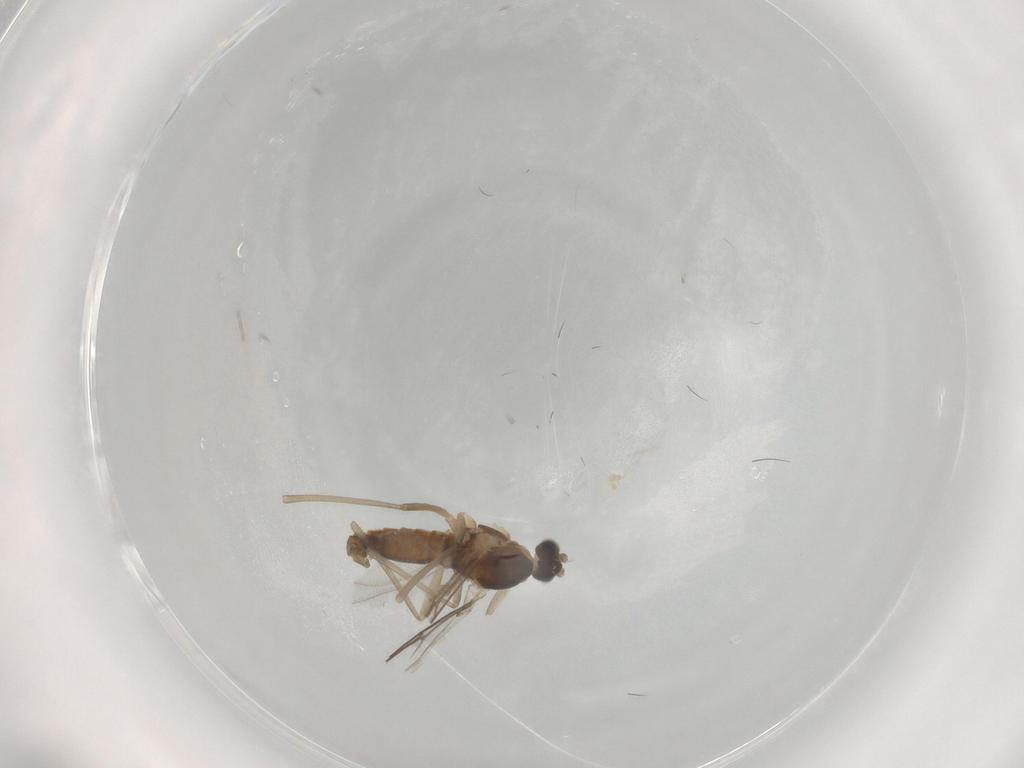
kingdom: Animalia
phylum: Arthropoda
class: Insecta
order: Diptera
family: Cecidomyiidae
